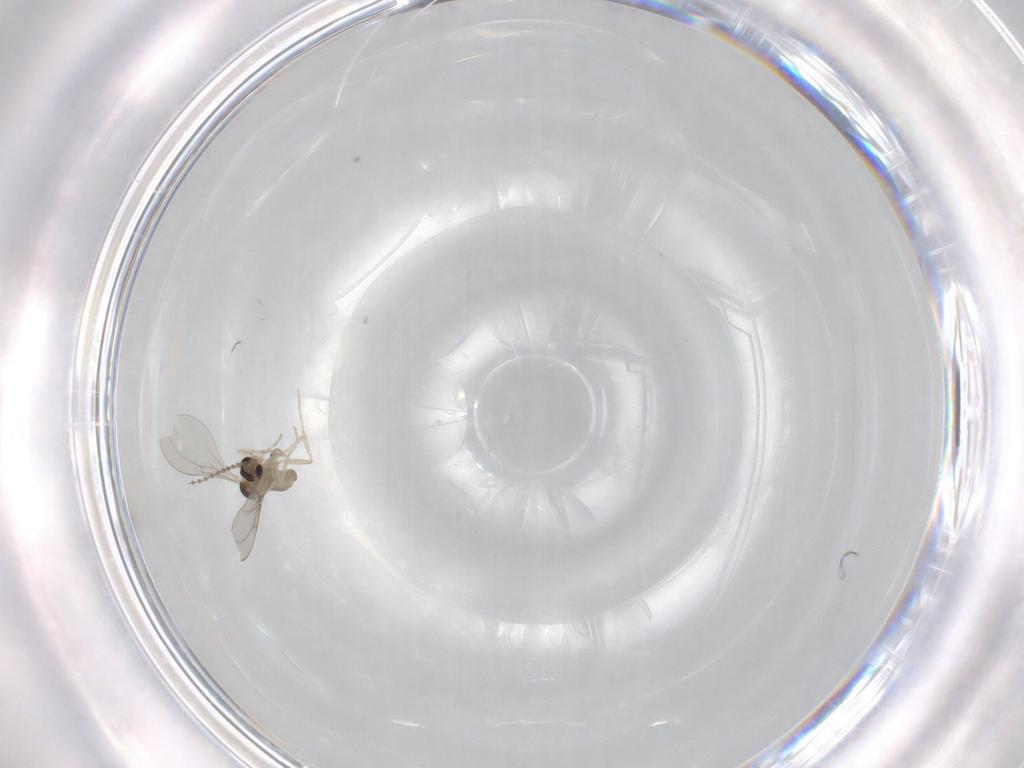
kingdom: Animalia
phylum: Arthropoda
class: Insecta
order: Diptera
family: Cecidomyiidae
